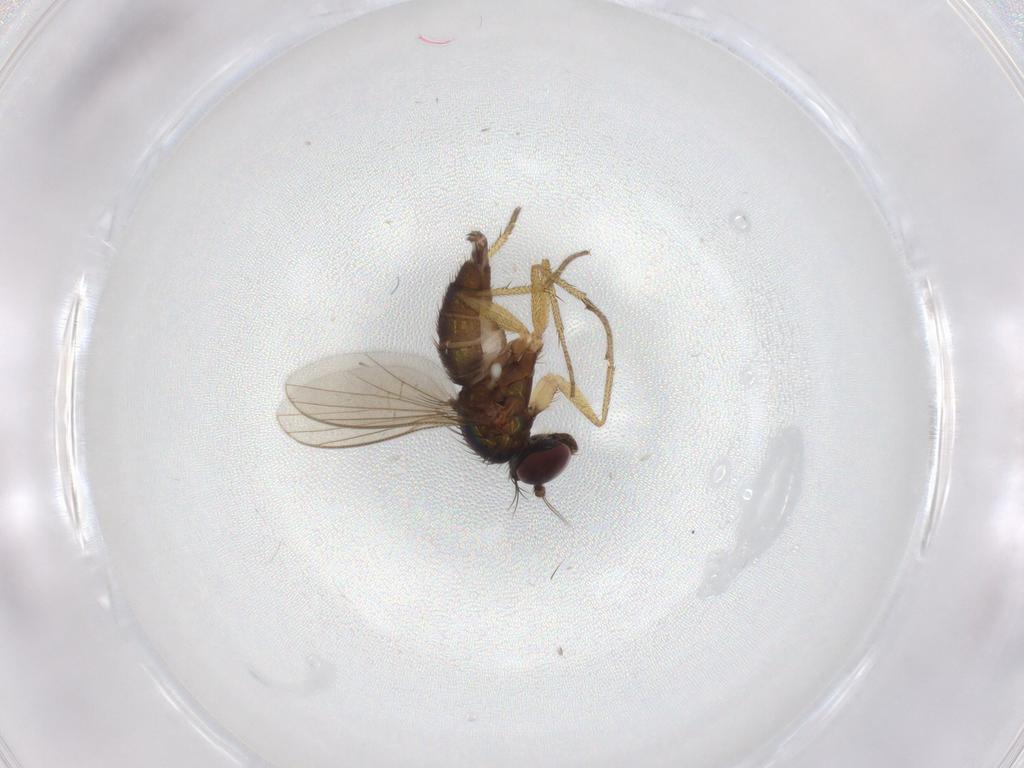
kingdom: Animalia
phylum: Arthropoda
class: Insecta
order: Diptera
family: Dolichopodidae
